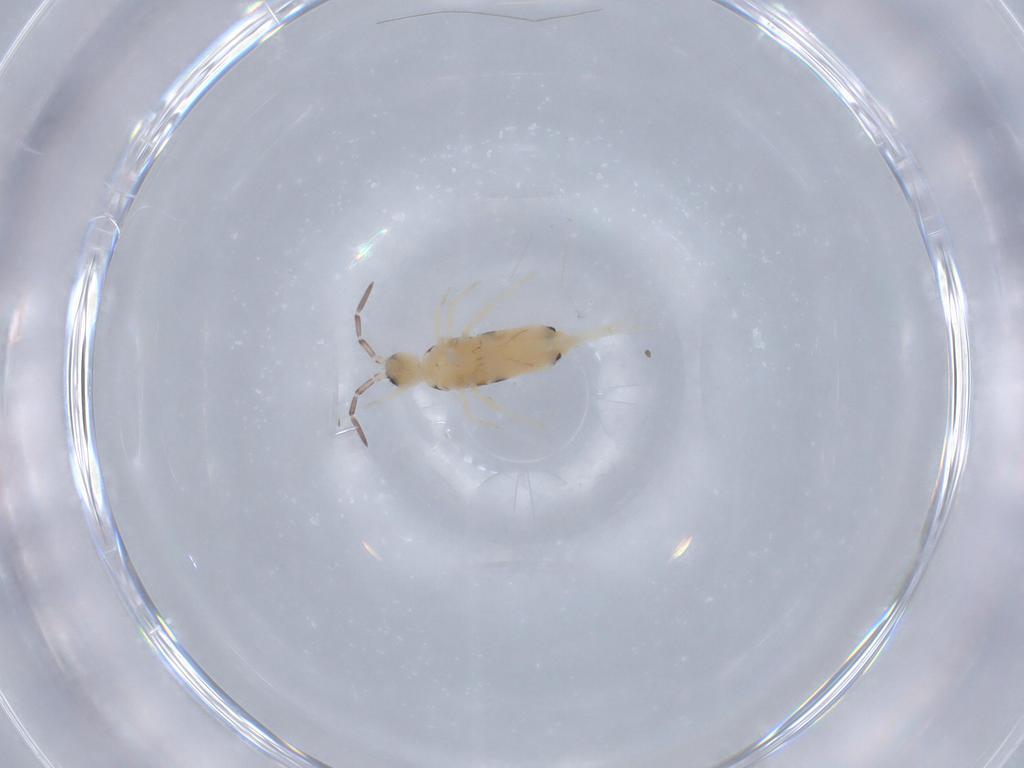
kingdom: Animalia
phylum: Arthropoda
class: Collembola
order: Entomobryomorpha
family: Entomobryidae
